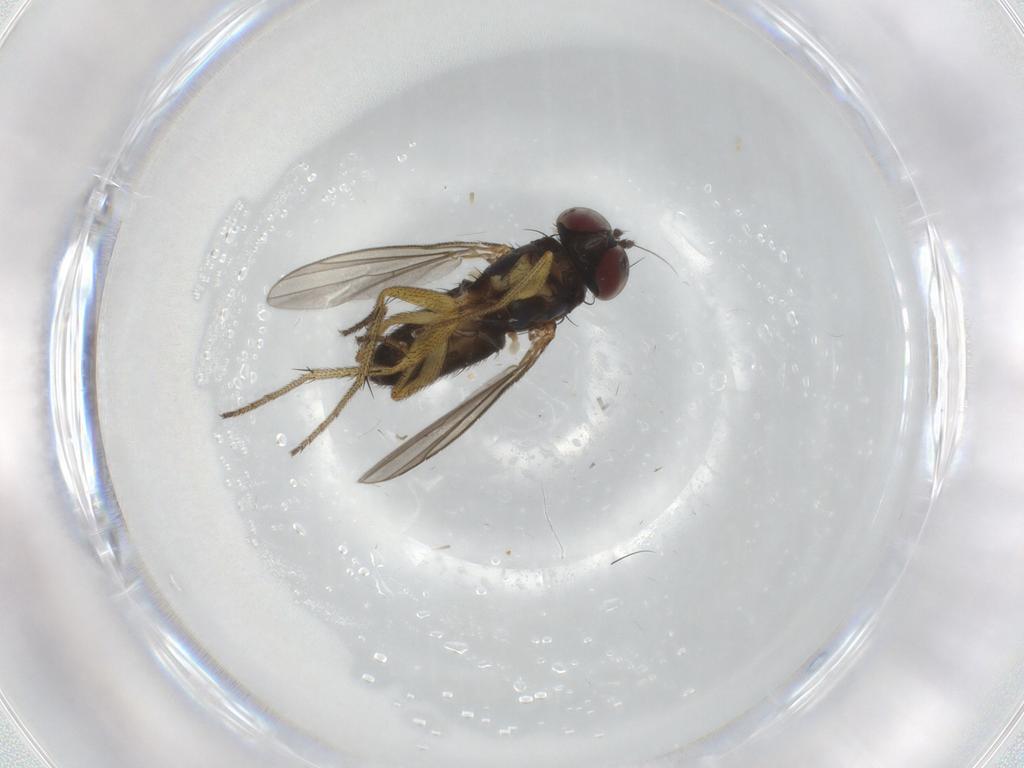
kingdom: Animalia
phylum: Arthropoda
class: Insecta
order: Diptera
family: Dolichopodidae
